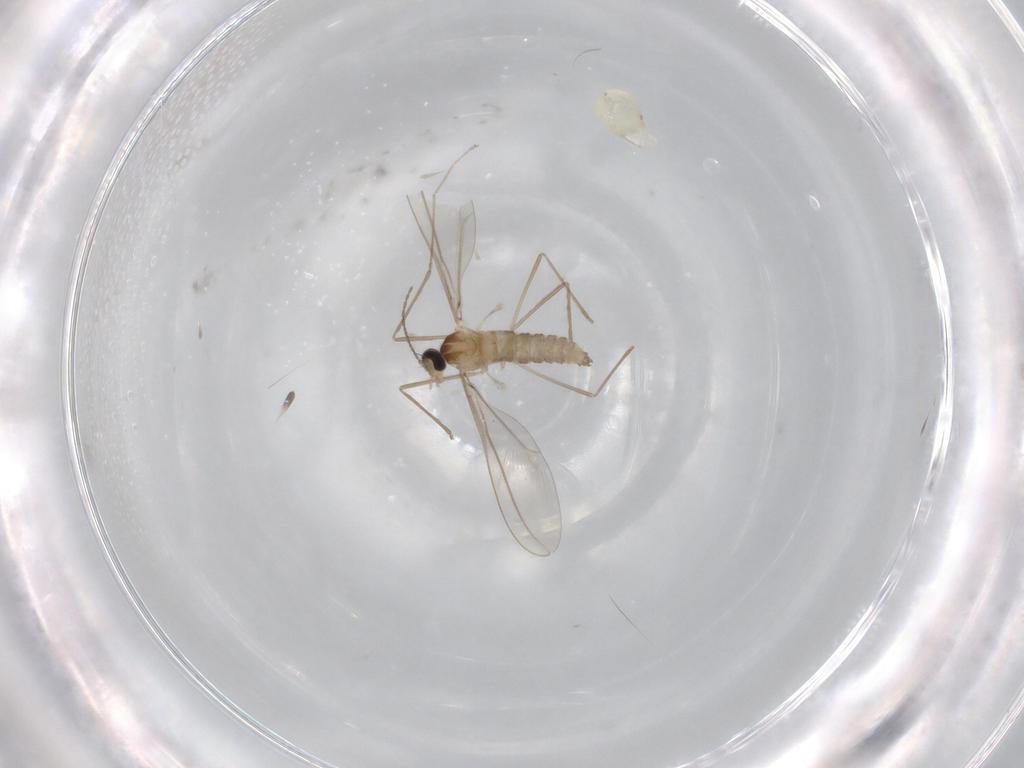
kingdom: Animalia
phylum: Arthropoda
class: Insecta
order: Diptera
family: Cecidomyiidae
